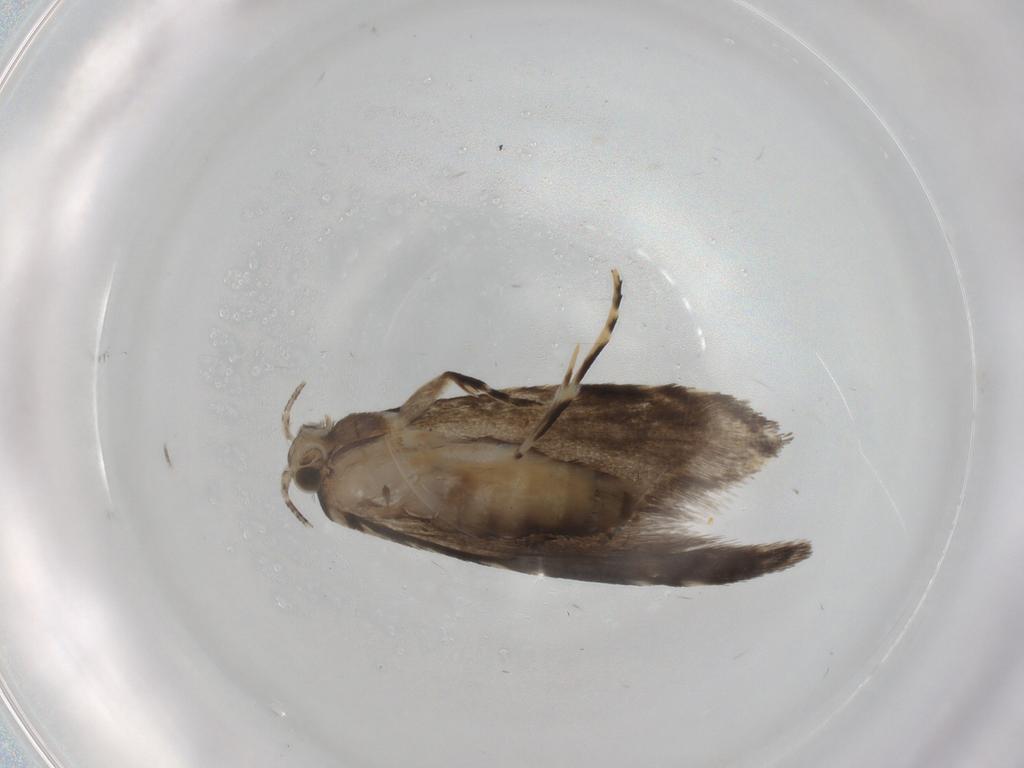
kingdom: Animalia
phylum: Arthropoda
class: Insecta
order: Lepidoptera
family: Tineidae
